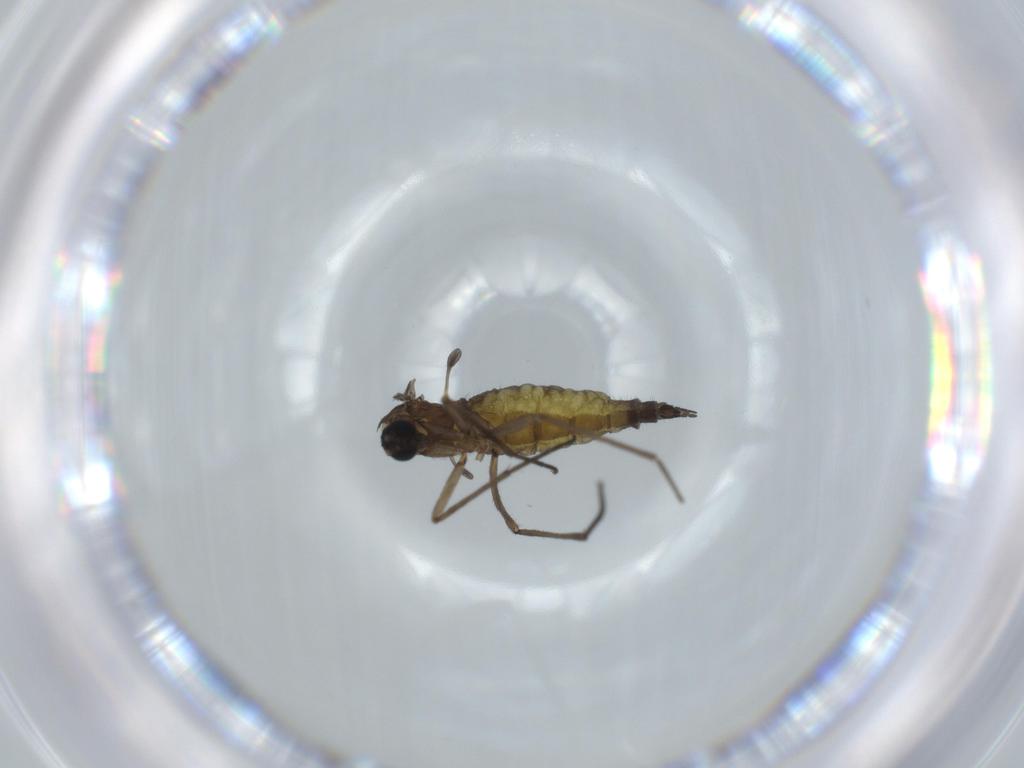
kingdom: Animalia
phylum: Arthropoda
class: Insecta
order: Diptera
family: Sciaridae
